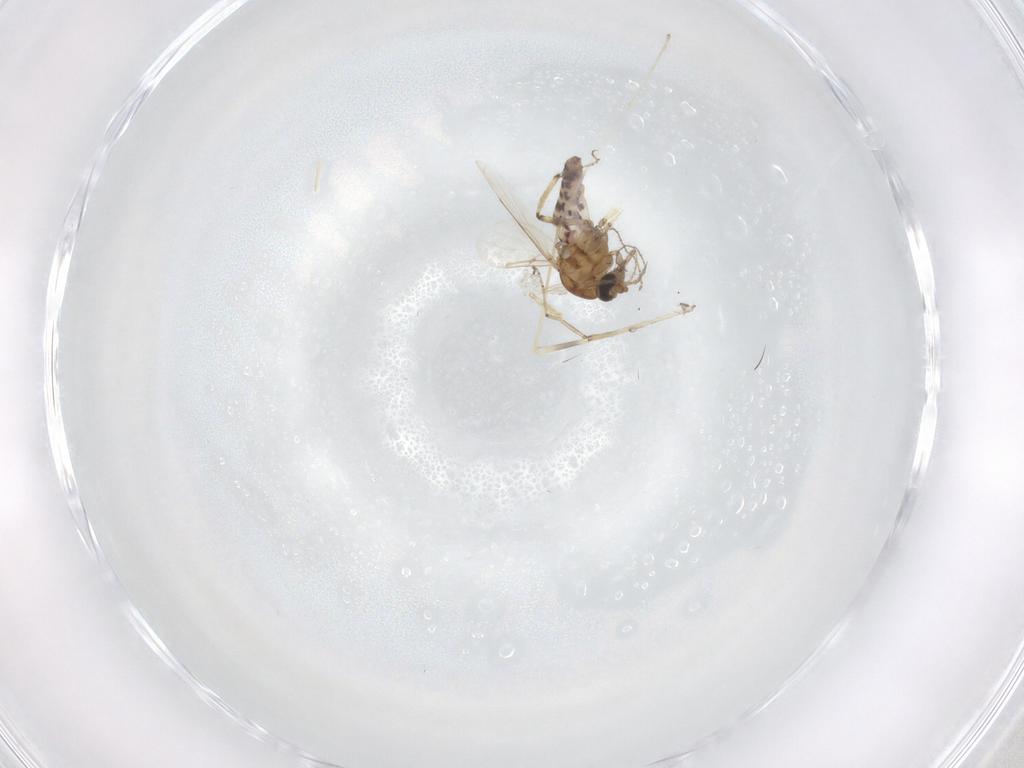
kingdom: Animalia
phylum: Arthropoda
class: Insecta
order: Diptera
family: Ceratopogonidae
